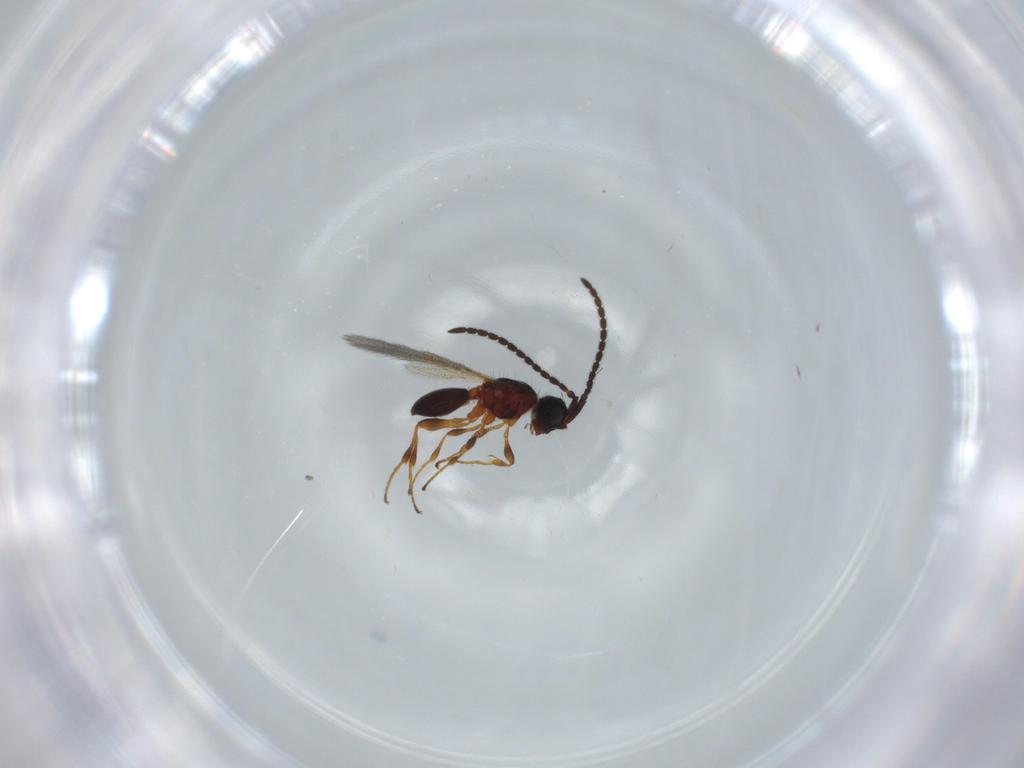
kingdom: Animalia
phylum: Arthropoda
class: Insecta
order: Hymenoptera
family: Diapriidae
